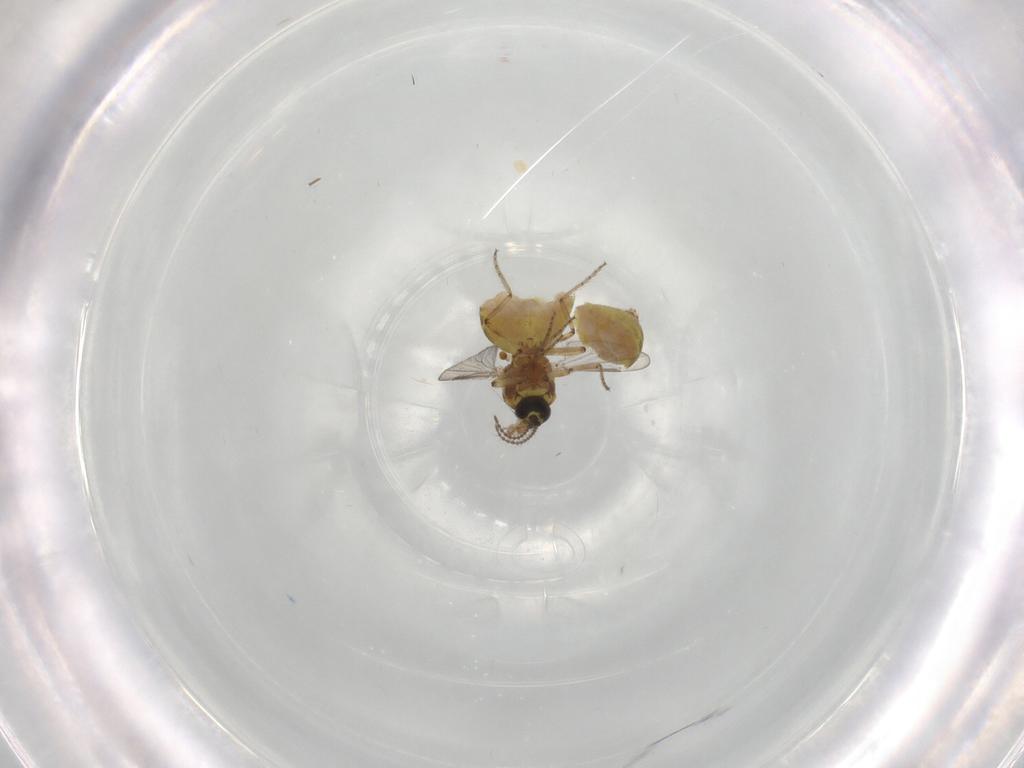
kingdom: Animalia
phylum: Arthropoda
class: Insecta
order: Diptera
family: Ceratopogonidae
